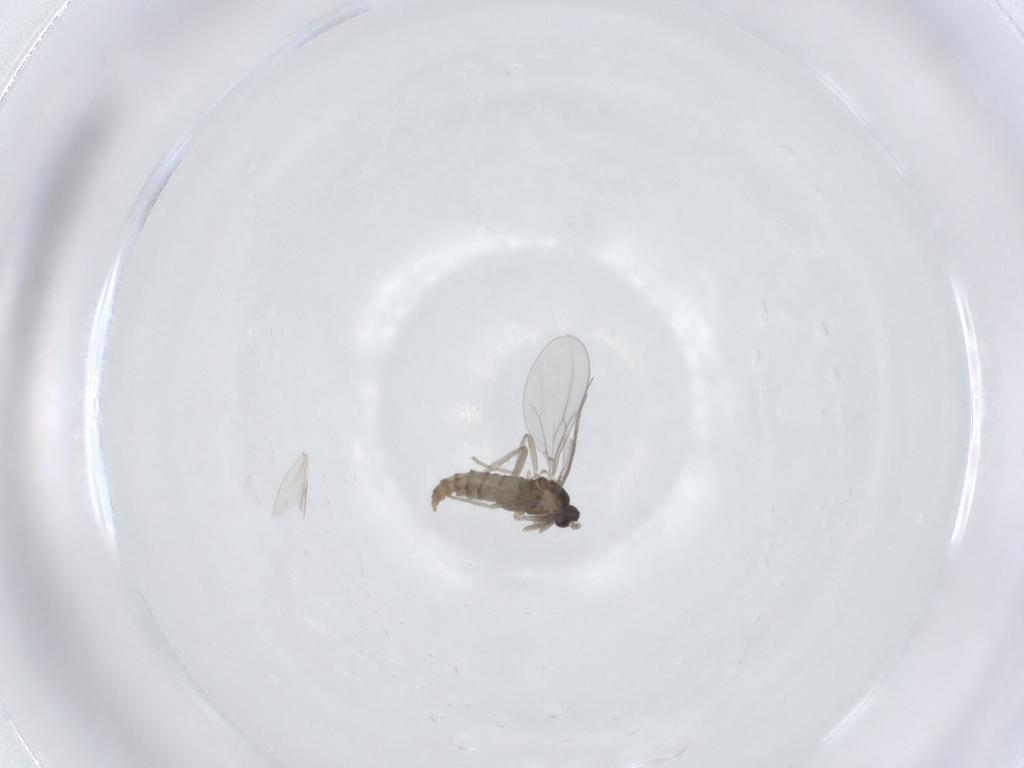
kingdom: Animalia
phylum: Arthropoda
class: Insecta
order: Diptera
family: Cecidomyiidae
